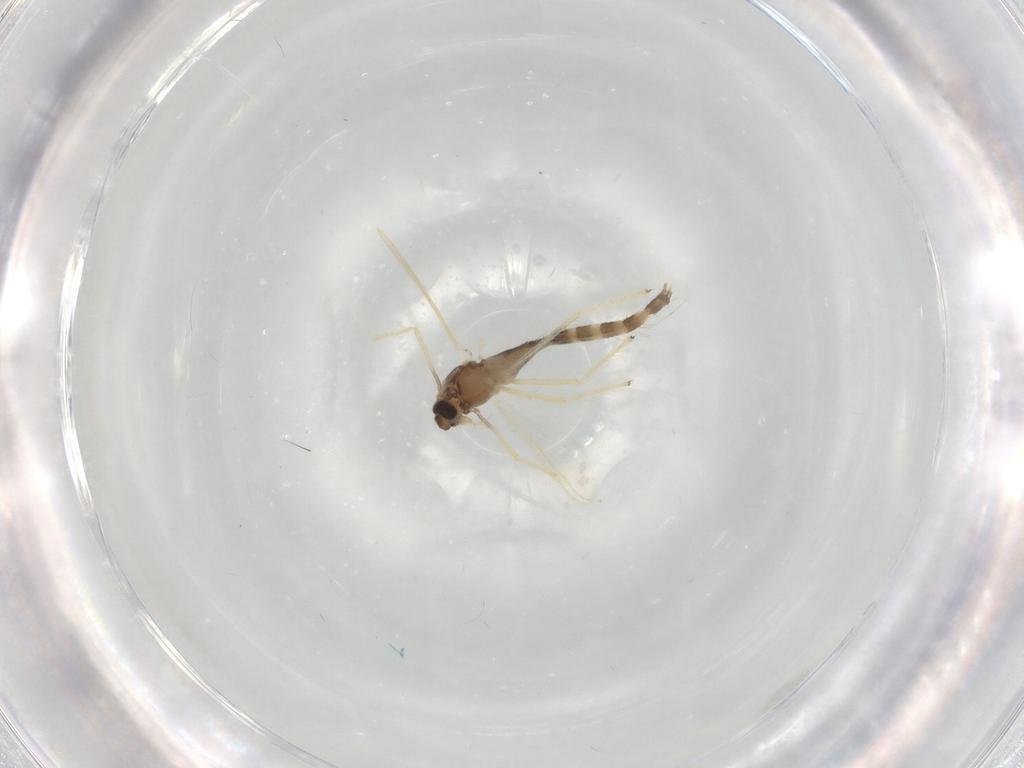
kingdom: Animalia
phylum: Arthropoda
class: Insecta
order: Diptera
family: Chironomidae
